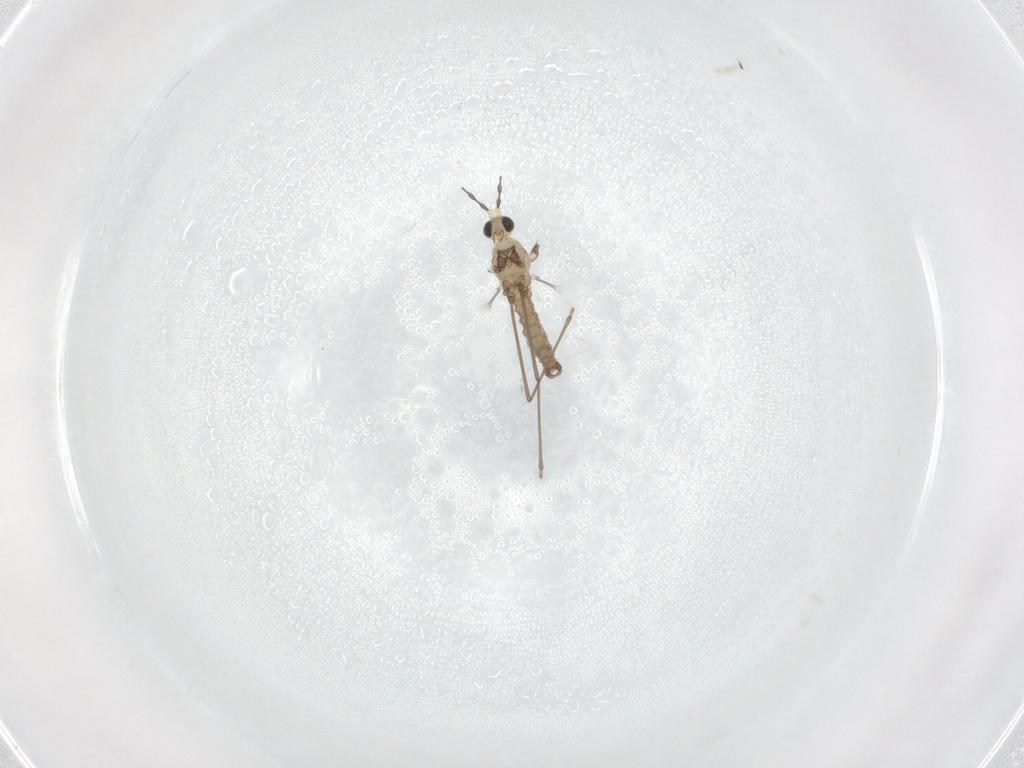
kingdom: Animalia
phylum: Arthropoda
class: Insecta
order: Diptera
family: Cecidomyiidae
